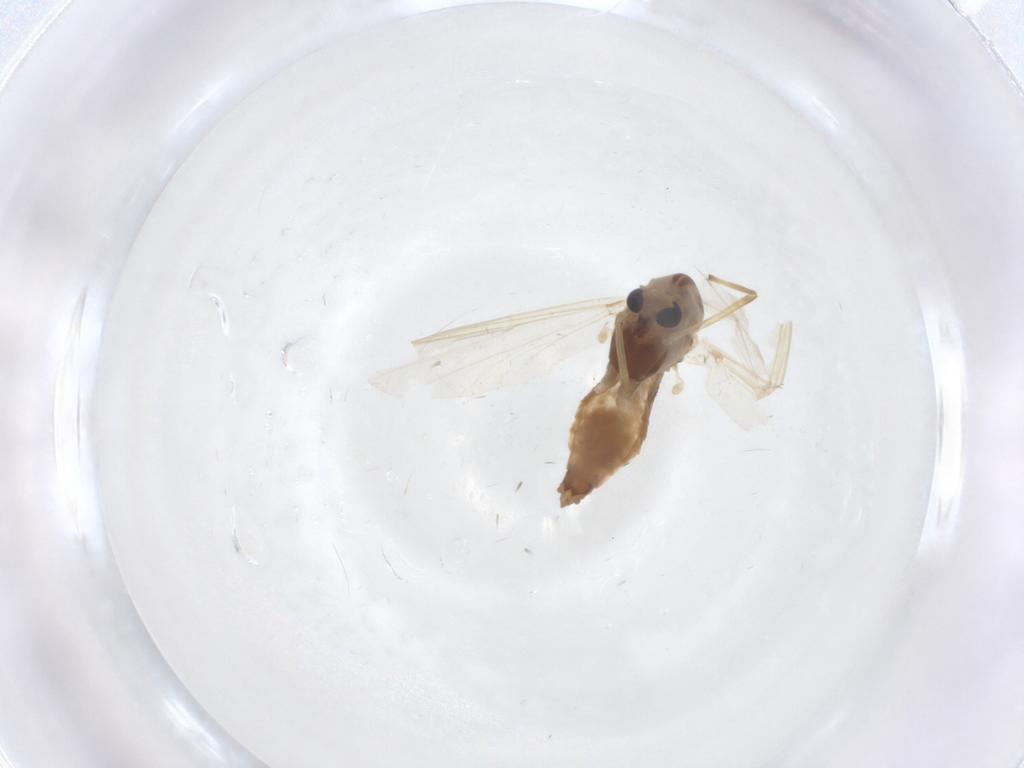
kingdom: Animalia
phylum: Arthropoda
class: Insecta
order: Diptera
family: Chironomidae
